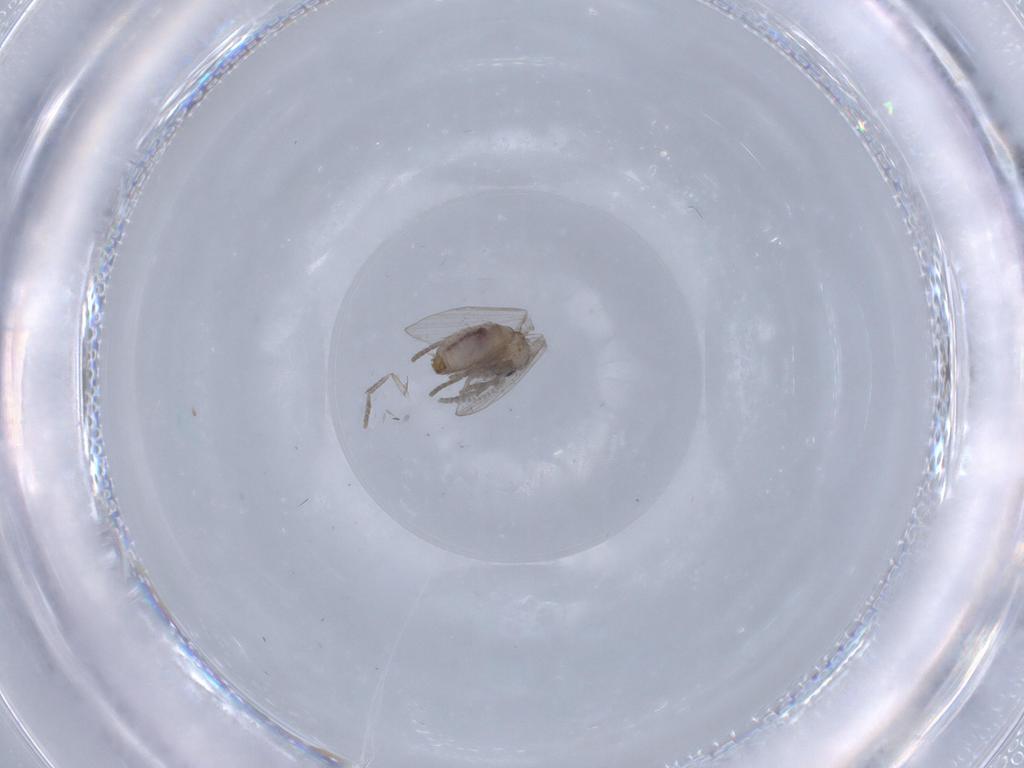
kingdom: Animalia
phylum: Arthropoda
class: Insecta
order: Diptera
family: Psychodidae
